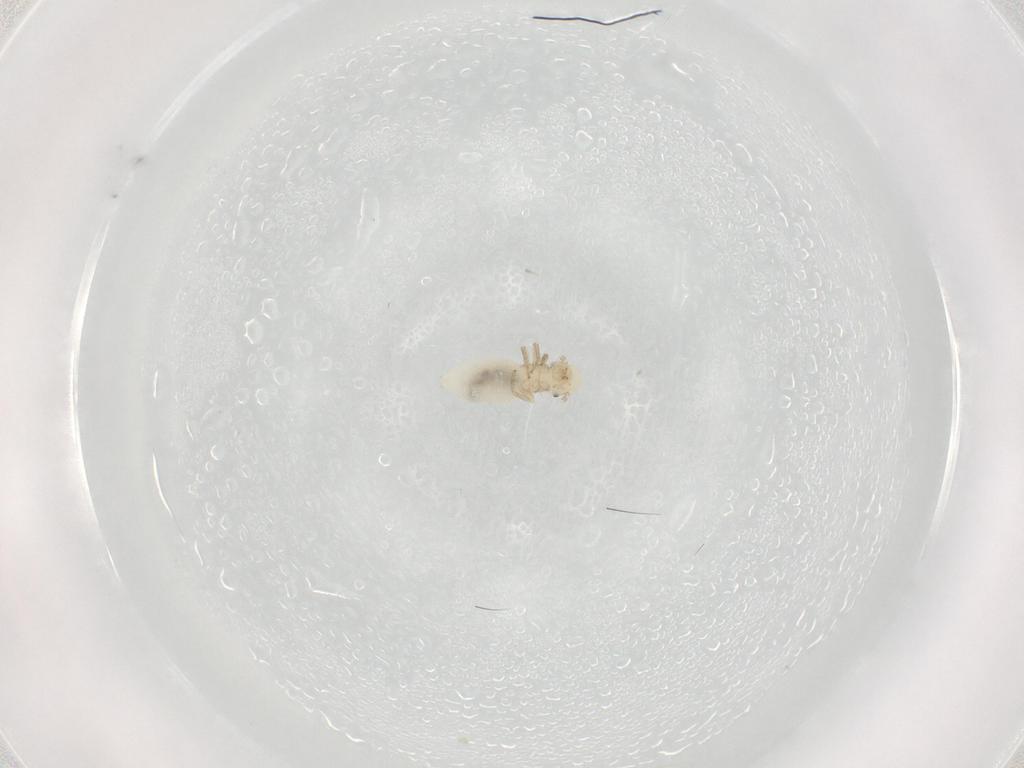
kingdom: Animalia
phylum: Arthropoda
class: Insecta
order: Psocodea
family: Caeciliusidae
